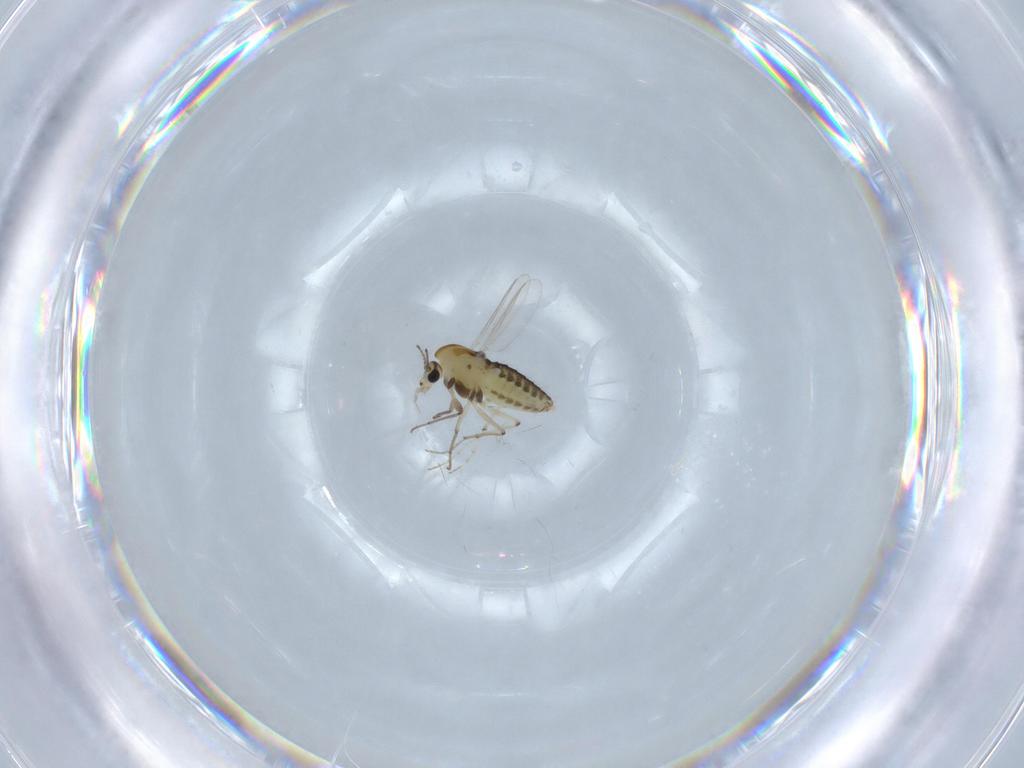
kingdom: Animalia
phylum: Arthropoda
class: Insecta
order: Diptera
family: Chironomidae
